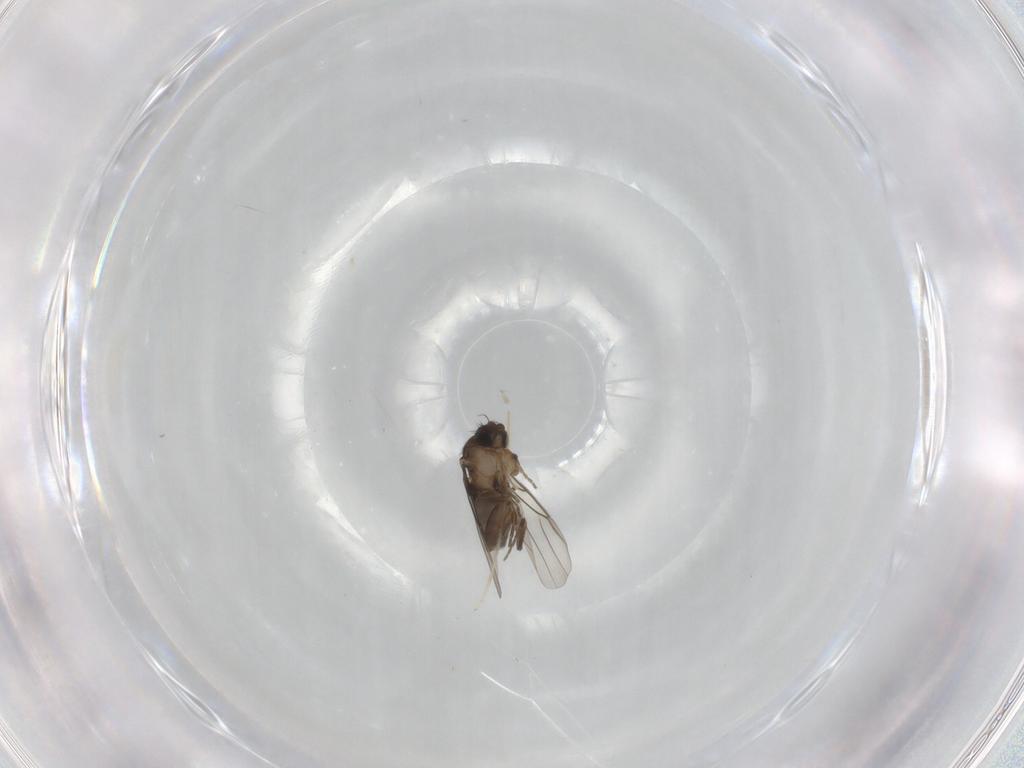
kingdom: Animalia
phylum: Arthropoda
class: Insecta
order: Diptera
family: Phoridae
